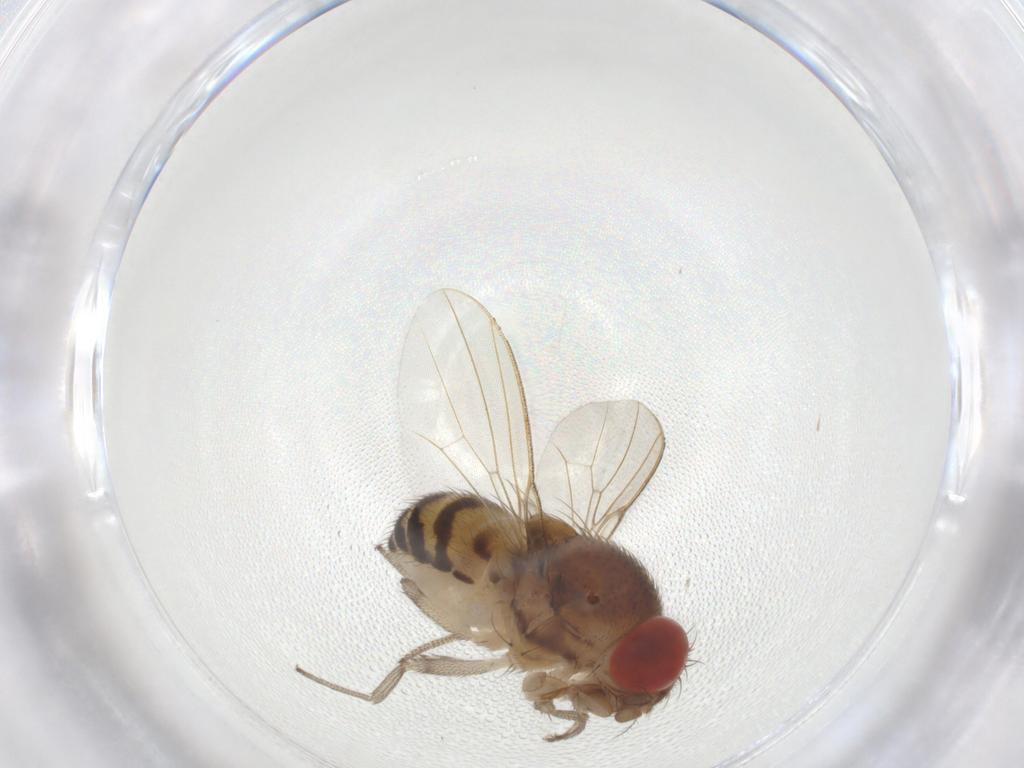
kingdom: Animalia
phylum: Arthropoda
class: Insecta
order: Diptera
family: Drosophilidae
